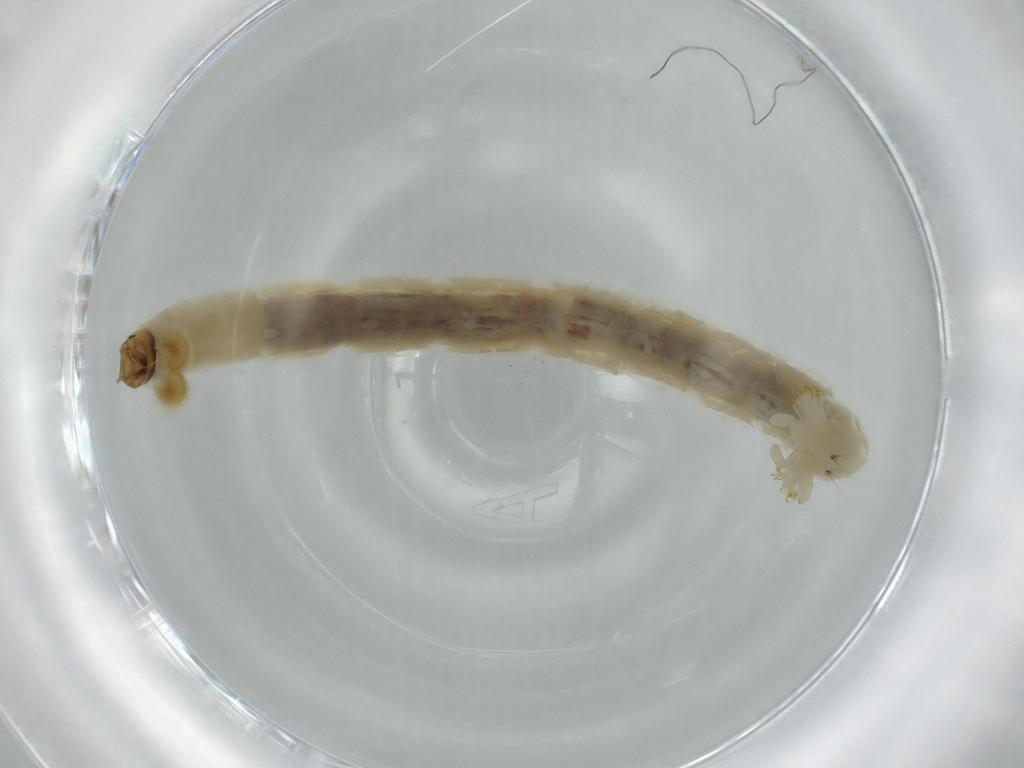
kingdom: Animalia
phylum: Arthropoda
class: Insecta
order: Diptera
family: Chironomidae
